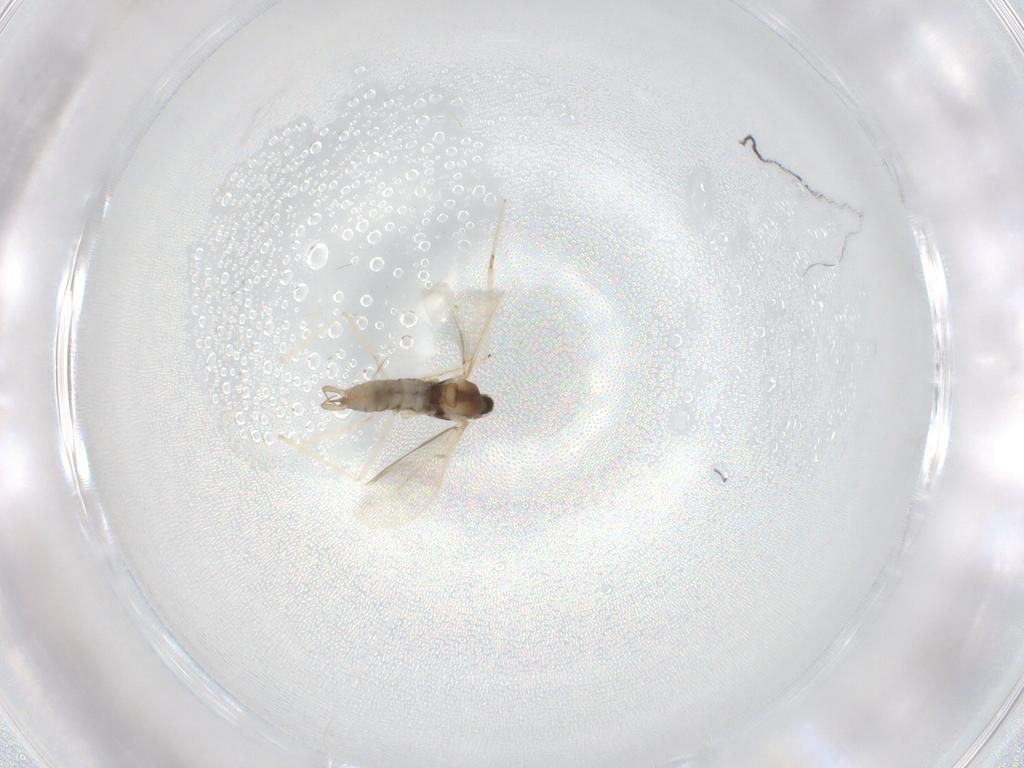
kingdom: Animalia
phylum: Arthropoda
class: Insecta
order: Diptera
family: Cecidomyiidae
